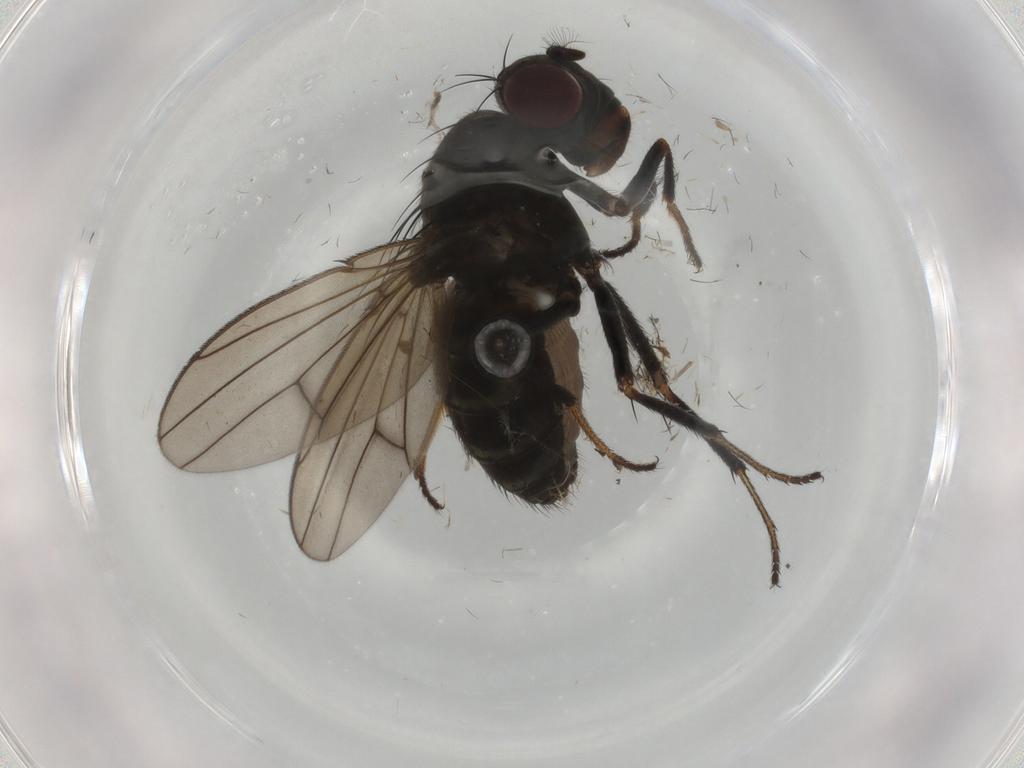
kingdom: Animalia
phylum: Arthropoda
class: Insecta
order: Diptera
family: Ephydridae
